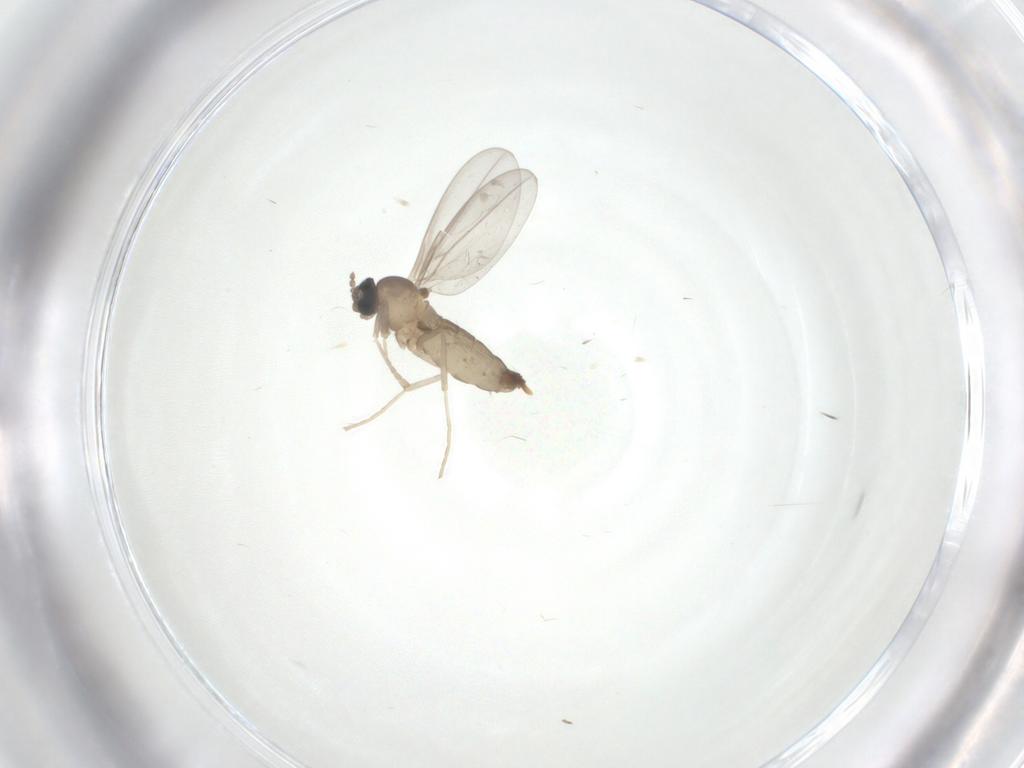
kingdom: Animalia
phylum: Arthropoda
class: Insecta
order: Diptera
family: Cecidomyiidae
